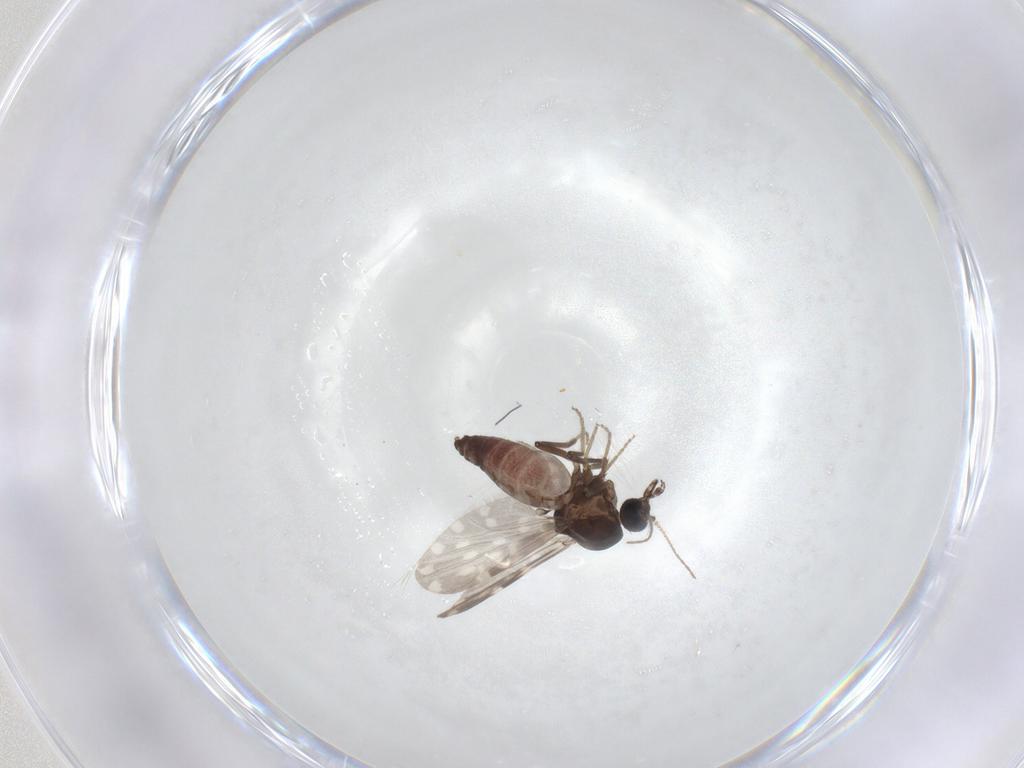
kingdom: Animalia
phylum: Arthropoda
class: Insecta
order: Diptera
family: Ceratopogonidae
